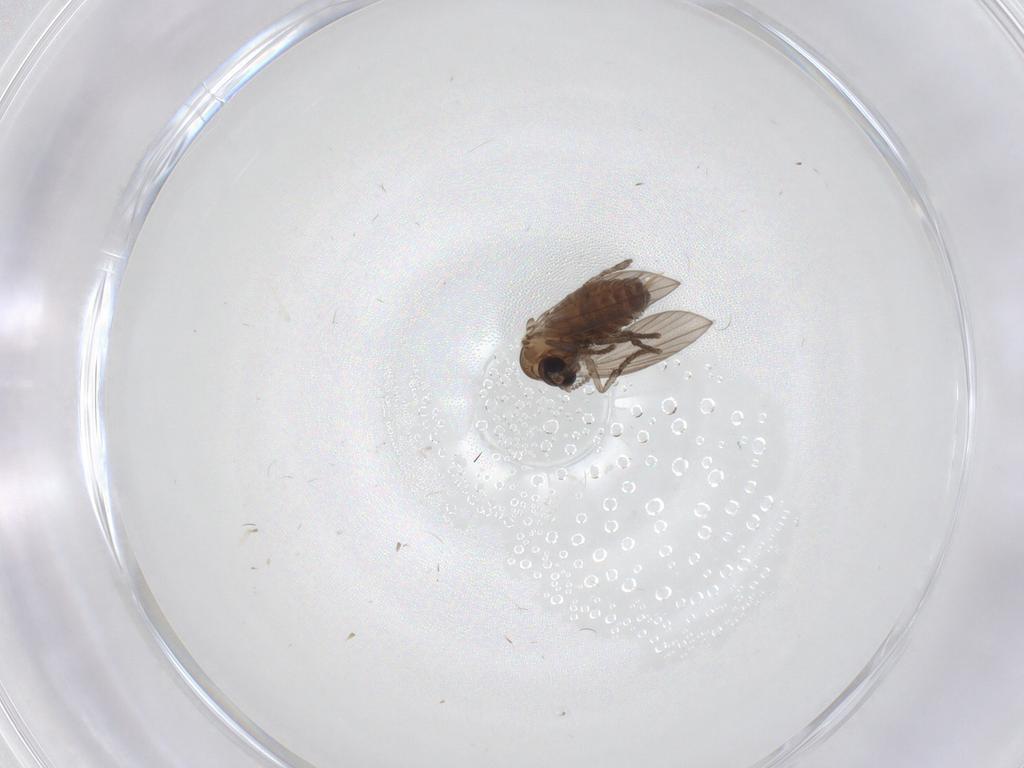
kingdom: Animalia
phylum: Arthropoda
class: Insecta
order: Diptera
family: Psychodidae
